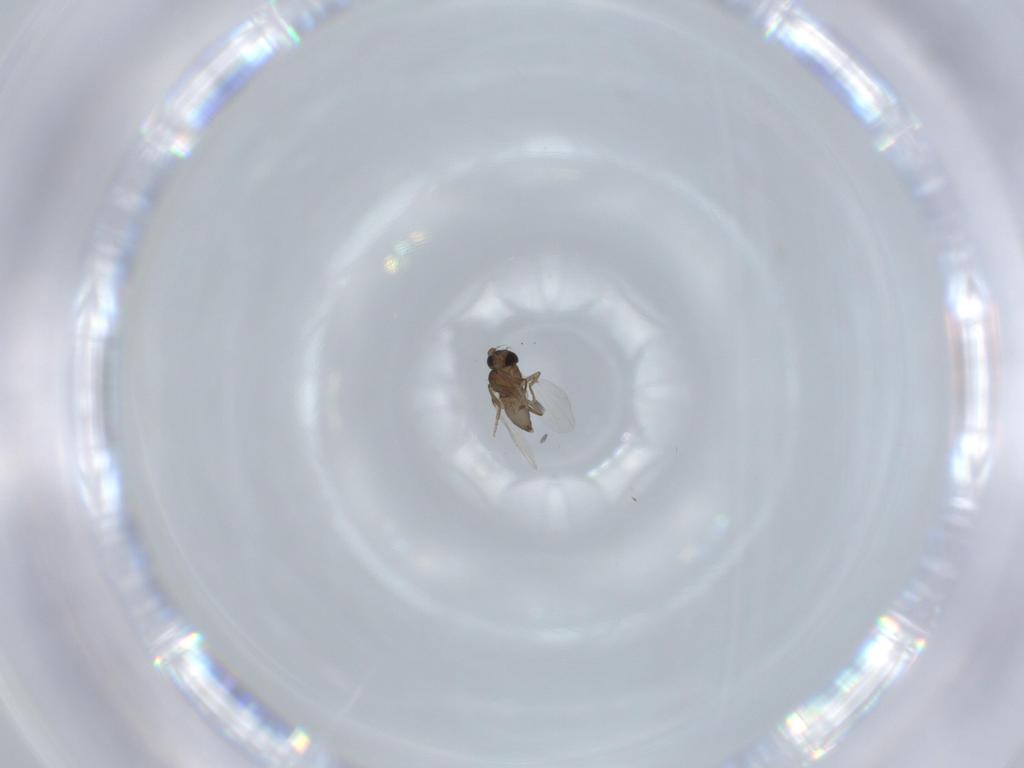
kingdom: Animalia
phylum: Arthropoda
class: Insecta
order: Diptera
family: Phoridae
